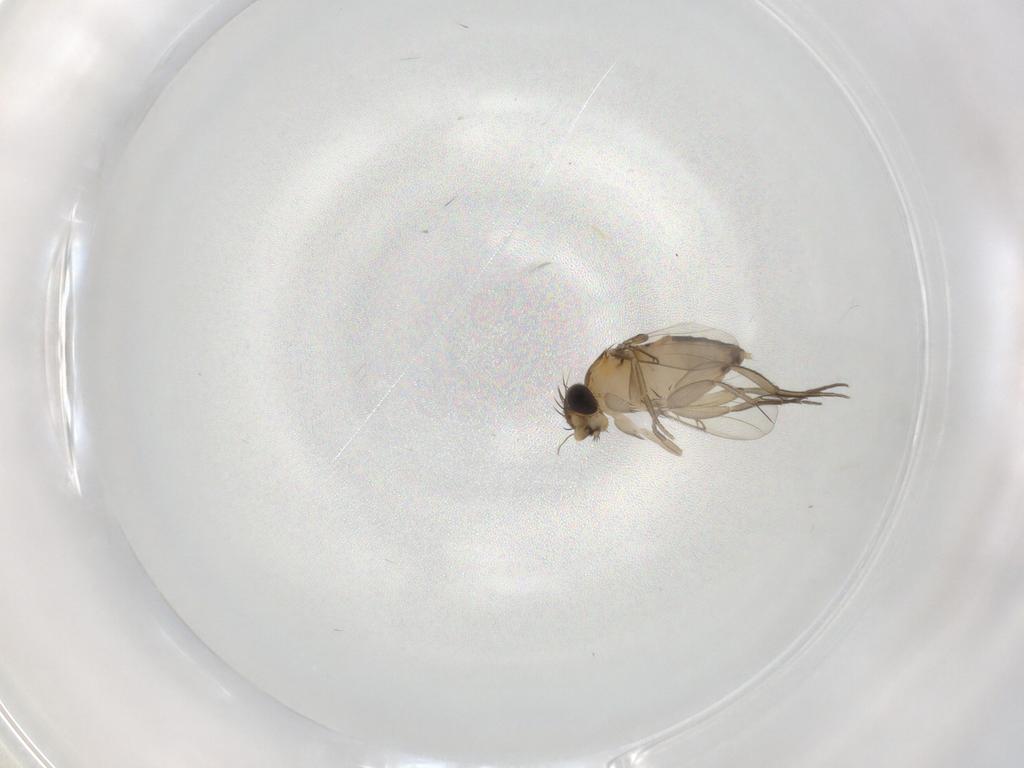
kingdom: Animalia
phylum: Arthropoda
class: Insecta
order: Diptera
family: Phoridae
